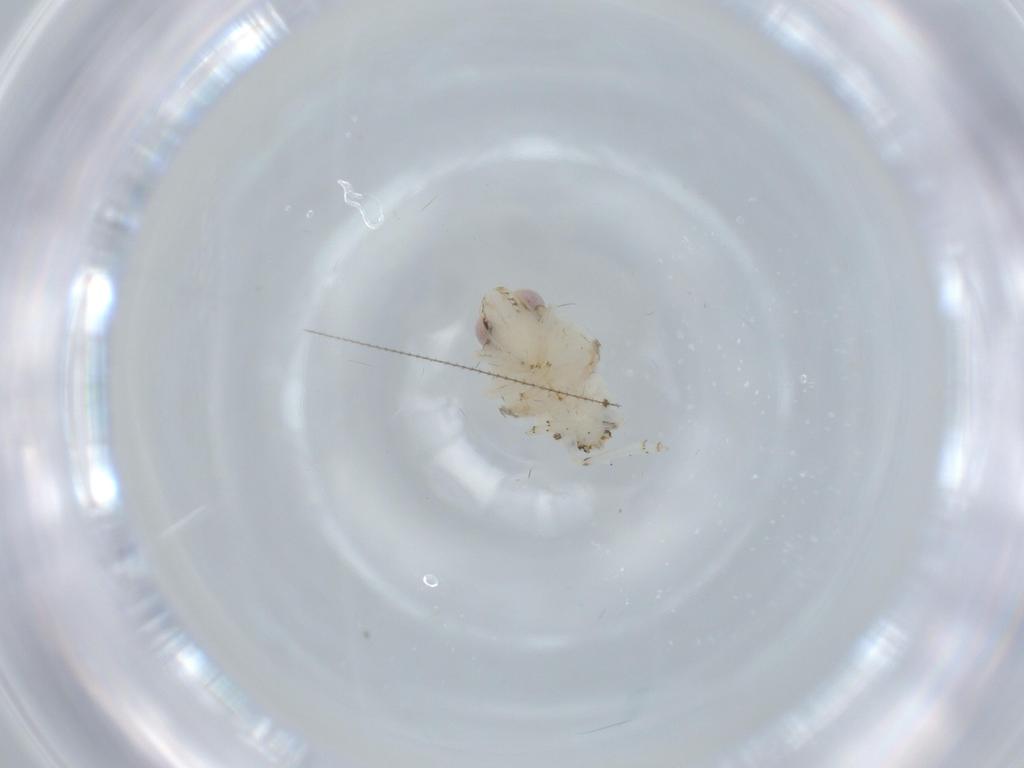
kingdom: Animalia
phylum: Arthropoda
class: Insecta
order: Hemiptera
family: Nogodinidae
